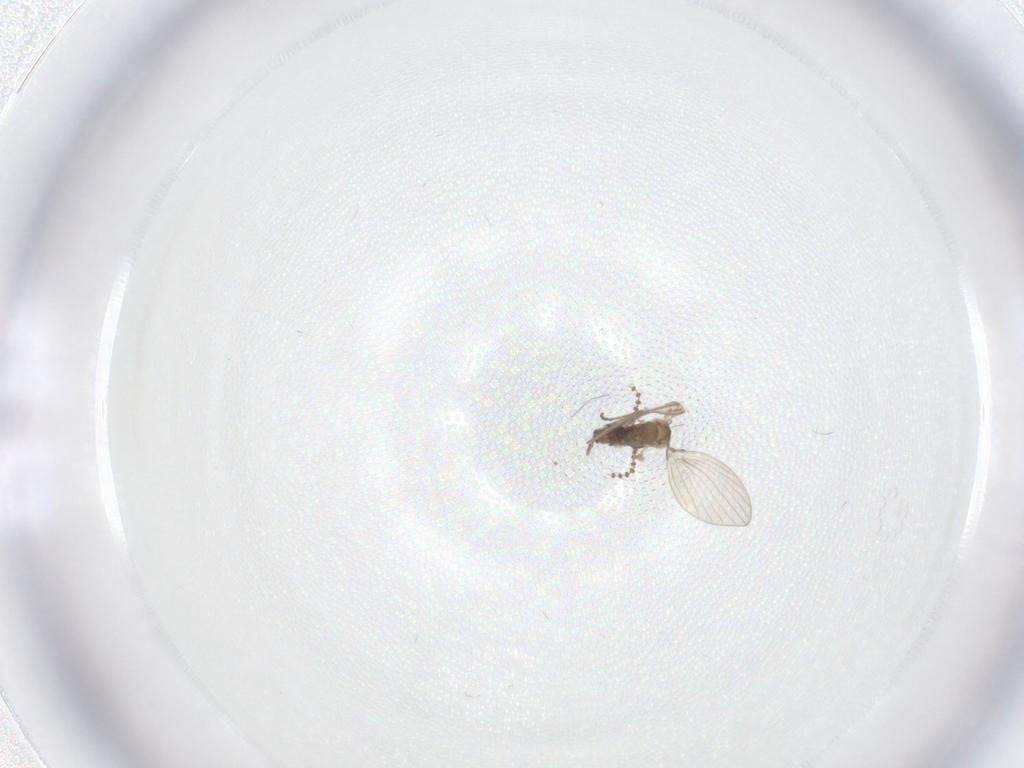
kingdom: Animalia
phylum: Arthropoda
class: Insecta
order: Diptera
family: Psychodidae
